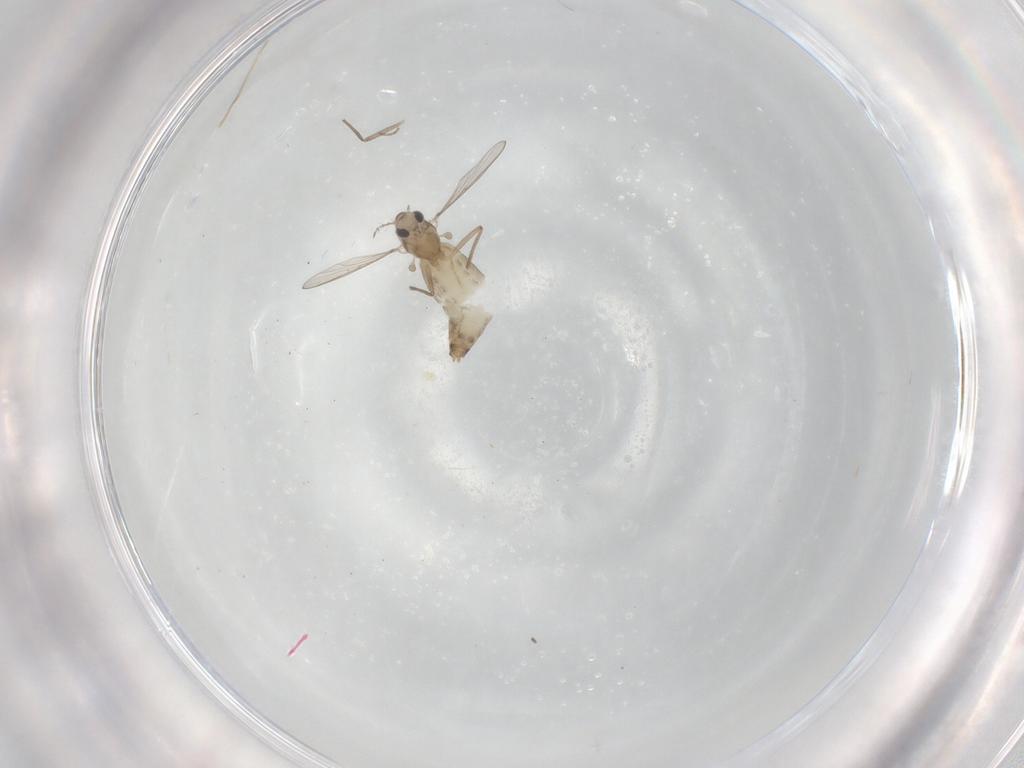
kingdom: Animalia
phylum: Arthropoda
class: Insecta
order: Diptera
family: Chironomidae
